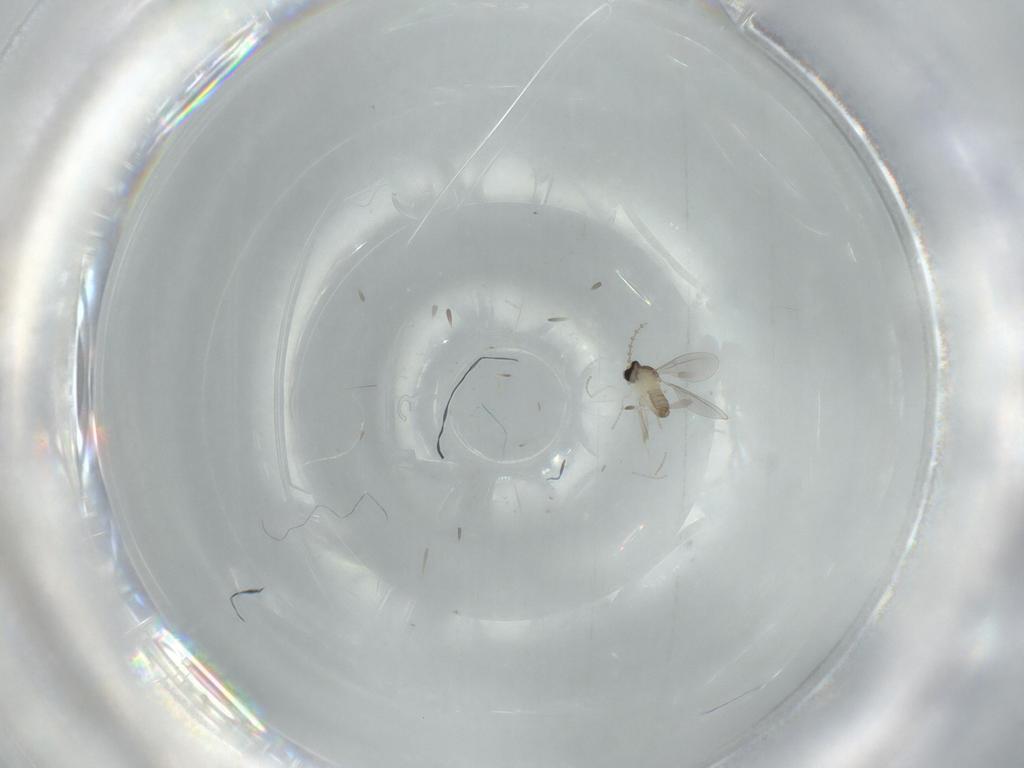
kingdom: Animalia
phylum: Arthropoda
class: Insecta
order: Diptera
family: Cecidomyiidae
